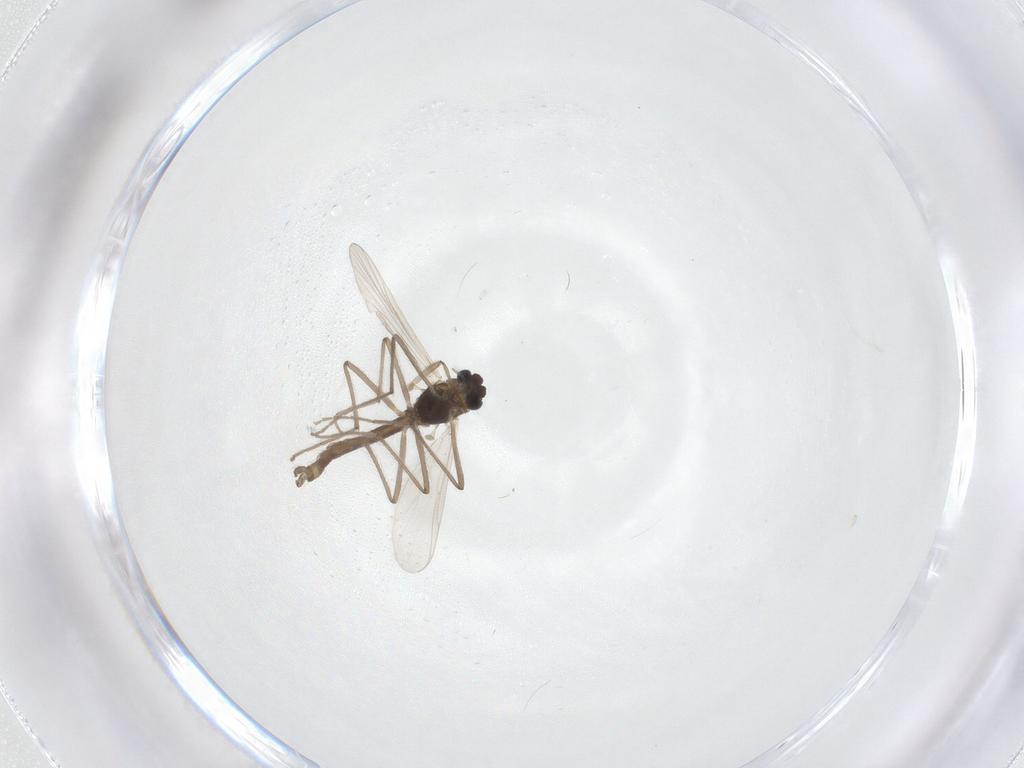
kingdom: Animalia
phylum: Arthropoda
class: Insecta
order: Diptera
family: Chironomidae
